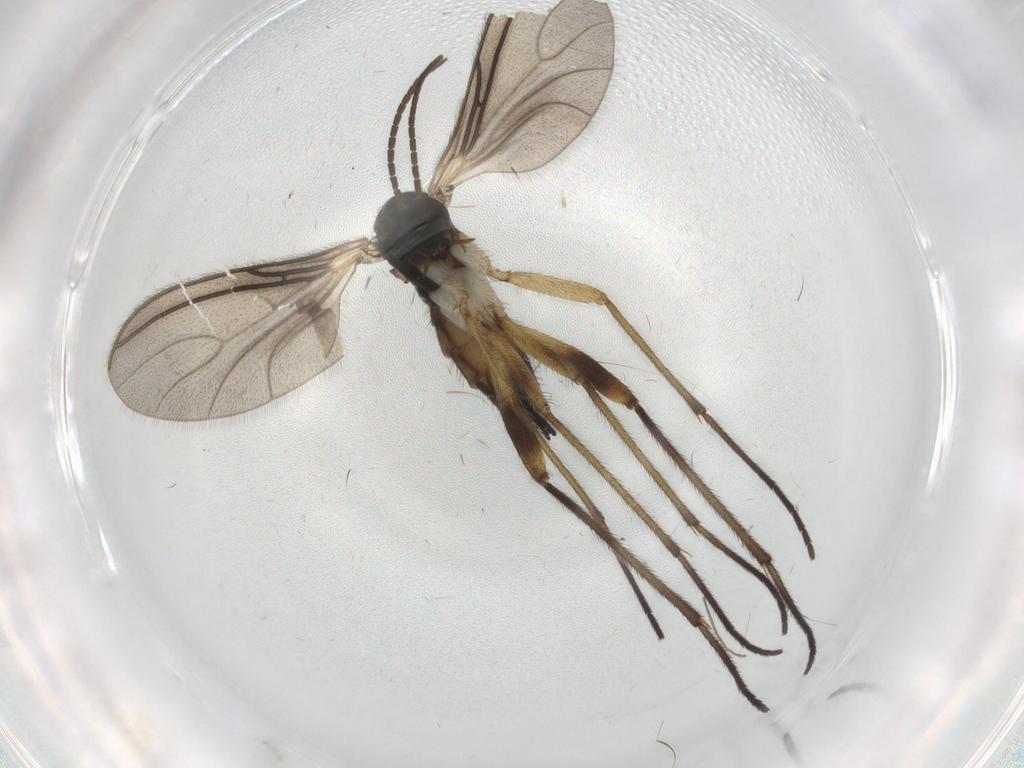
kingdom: Animalia
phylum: Arthropoda
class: Insecta
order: Diptera
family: Sciaridae
